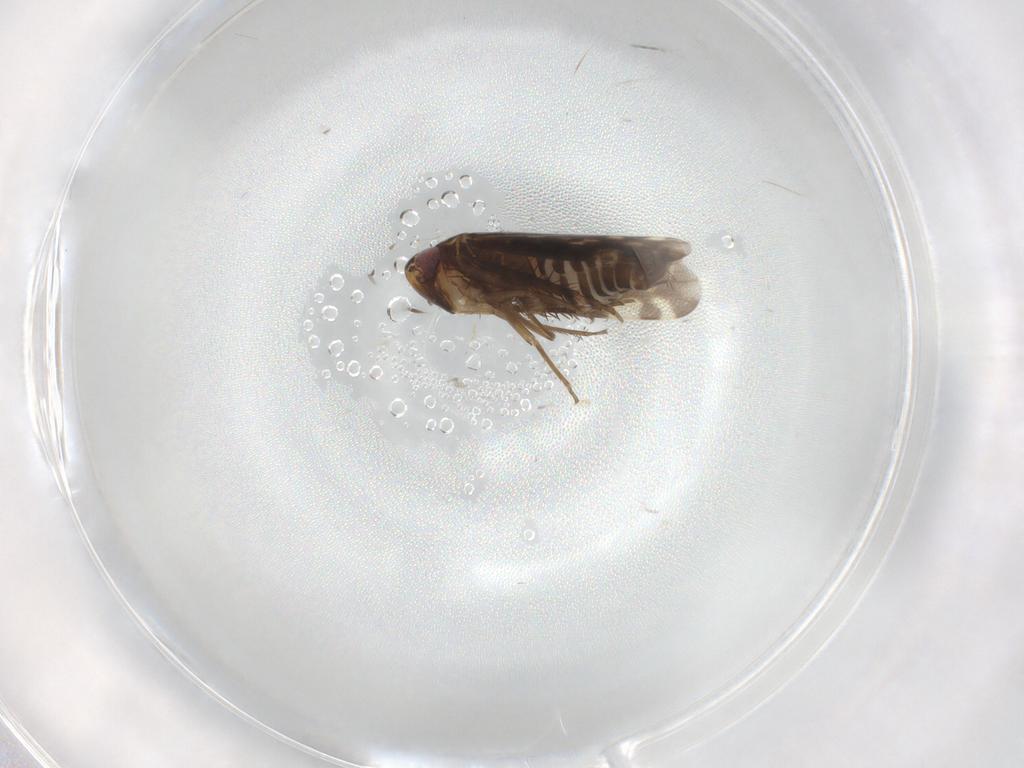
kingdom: Animalia
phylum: Arthropoda
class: Insecta
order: Hemiptera
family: Cicadellidae
